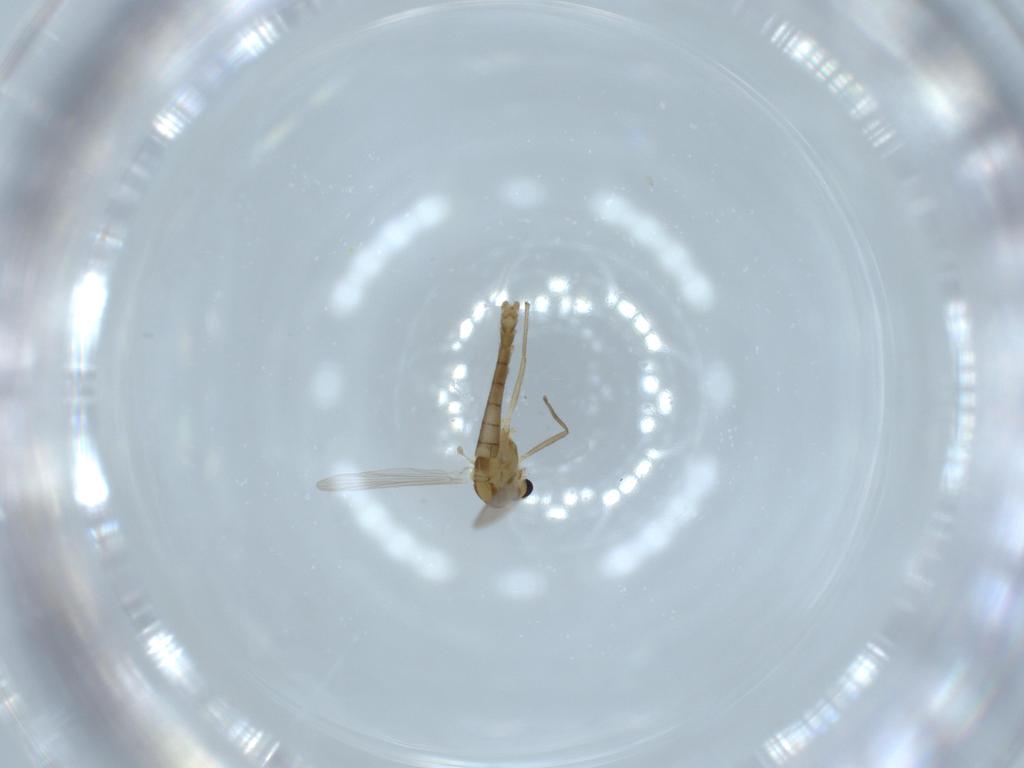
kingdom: Animalia
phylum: Arthropoda
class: Insecta
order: Diptera
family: Chironomidae
